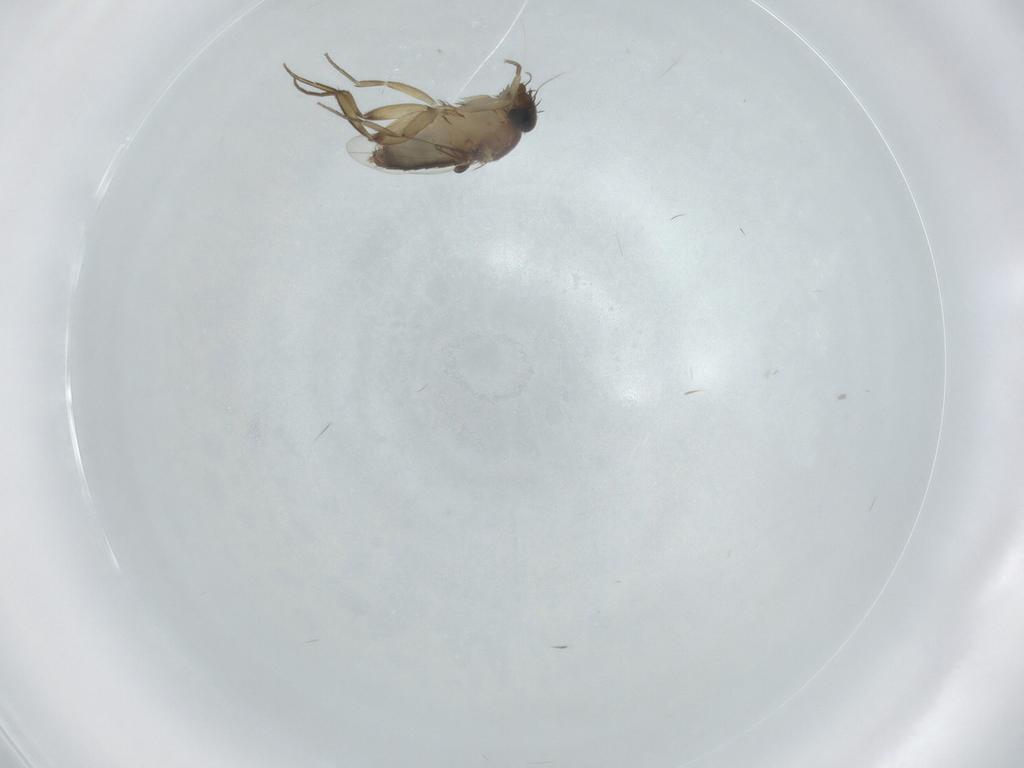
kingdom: Animalia
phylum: Arthropoda
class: Insecta
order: Diptera
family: Phoridae
